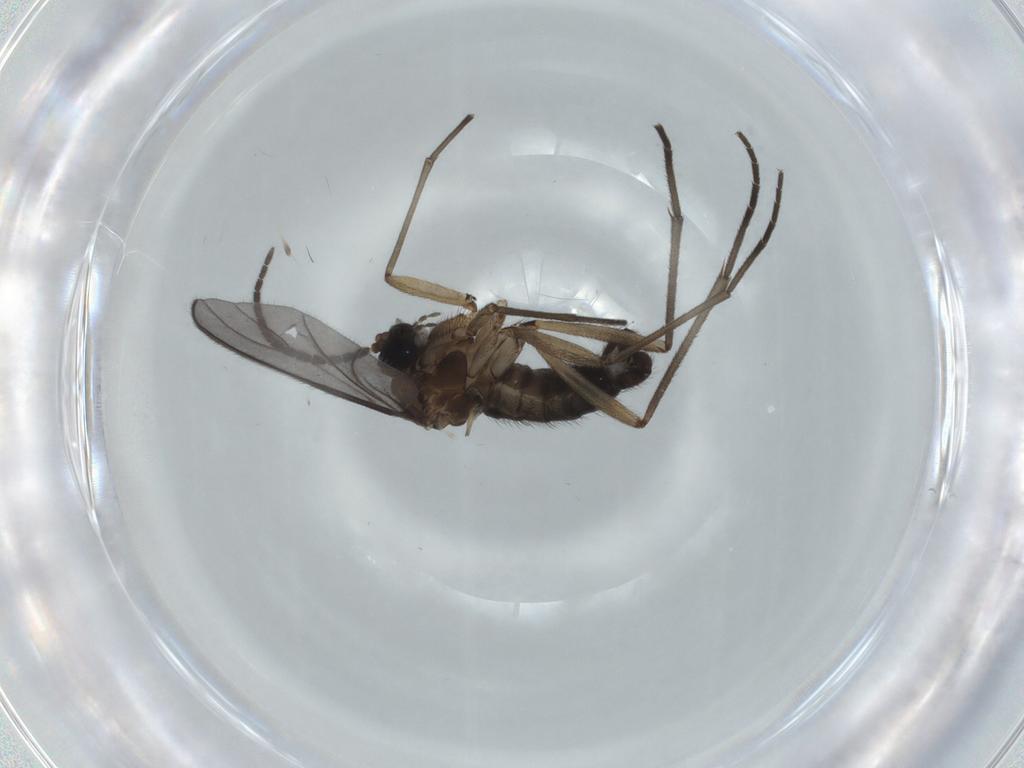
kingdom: Animalia
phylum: Arthropoda
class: Insecta
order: Diptera
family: Sciaridae
